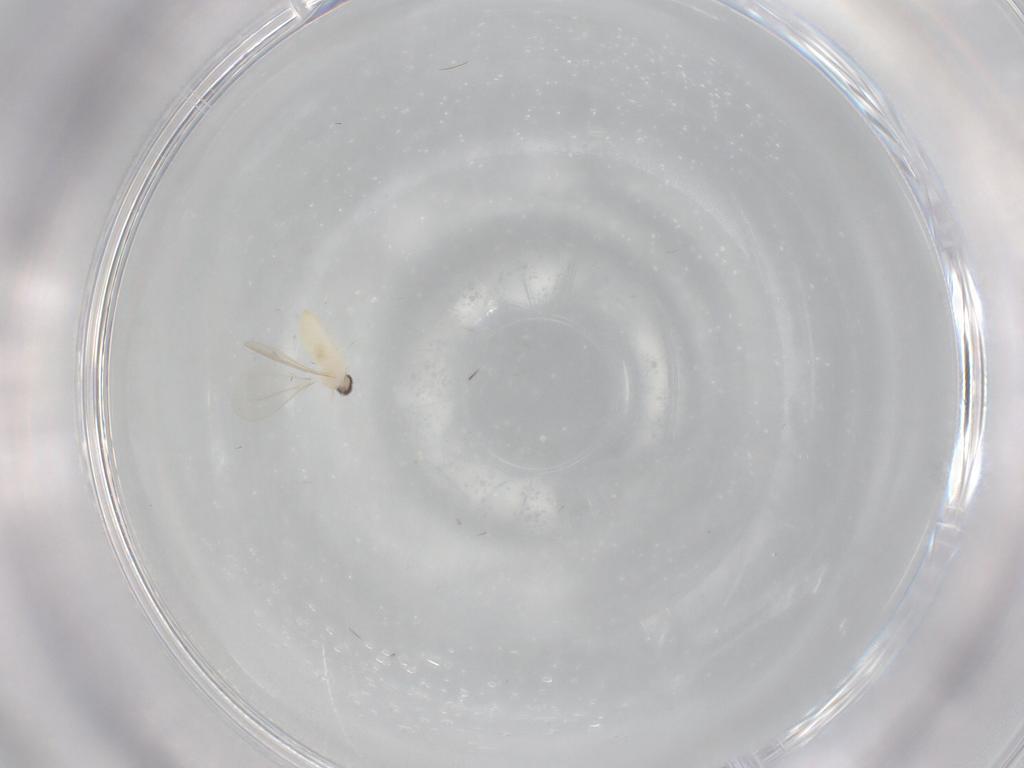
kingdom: Animalia
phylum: Arthropoda
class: Insecta
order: Diptera
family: Cecidomyiidae
